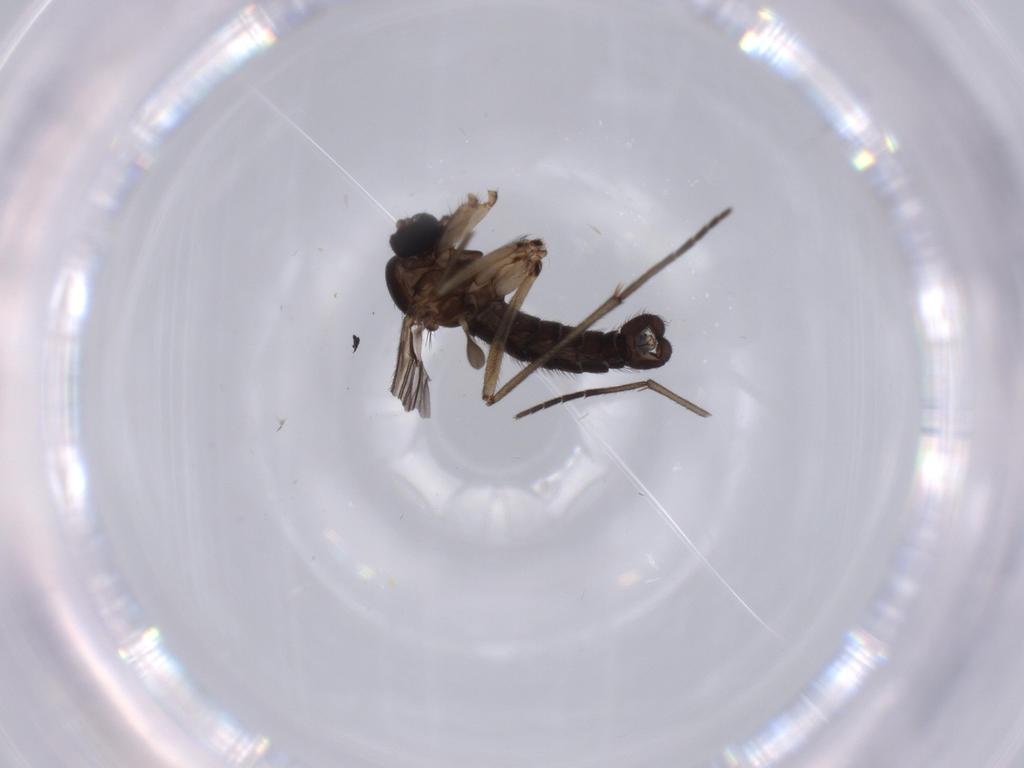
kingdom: Animalia
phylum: Arthropoda
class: Insecta
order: Diptera
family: Sciaridae
